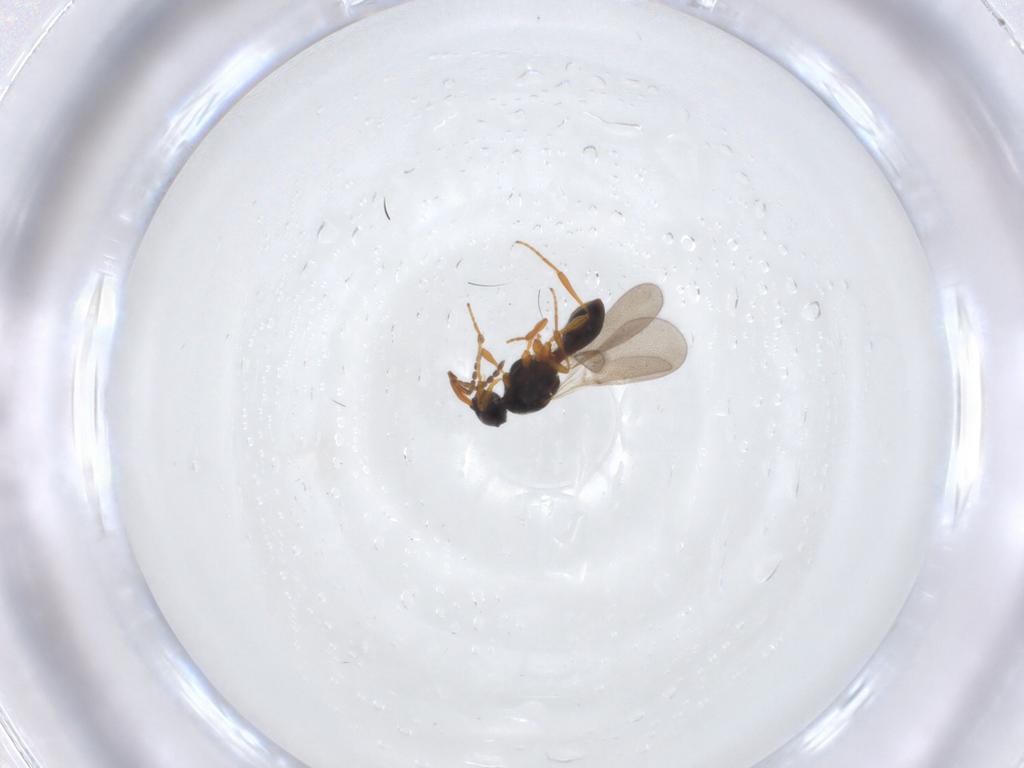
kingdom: Animalia
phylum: Arthropoda
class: Insecta
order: Hymenoptera
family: Platygastridae
